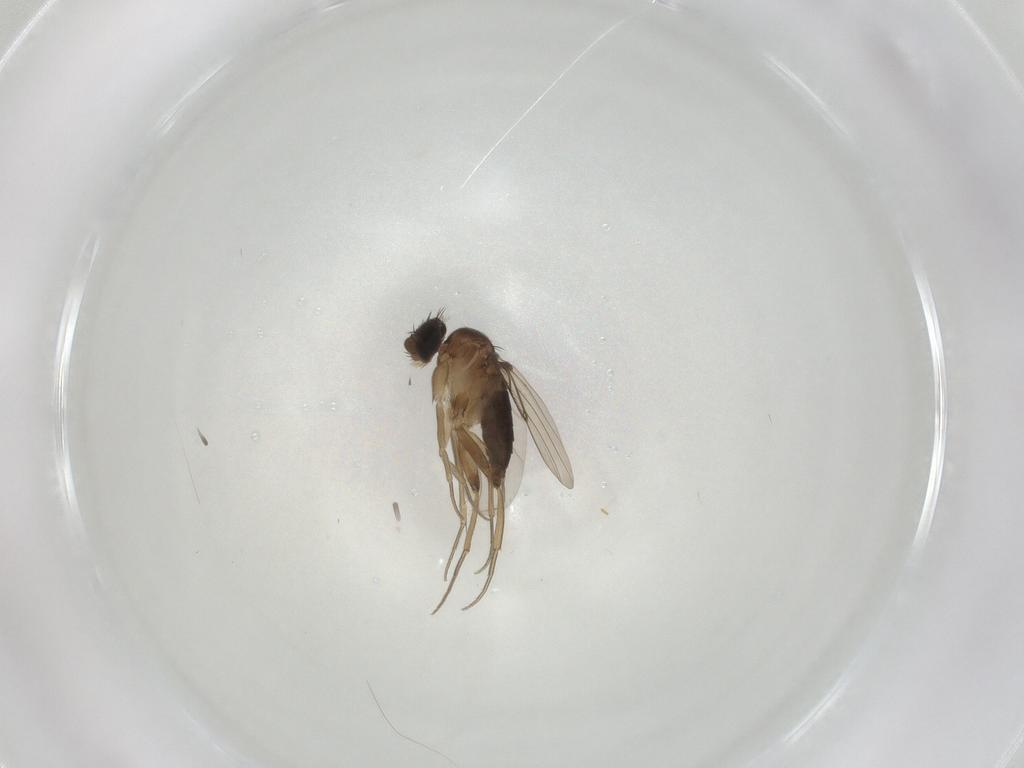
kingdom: Animalia
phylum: Arthropoda
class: Insecta
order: Diptera
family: Phoridae
